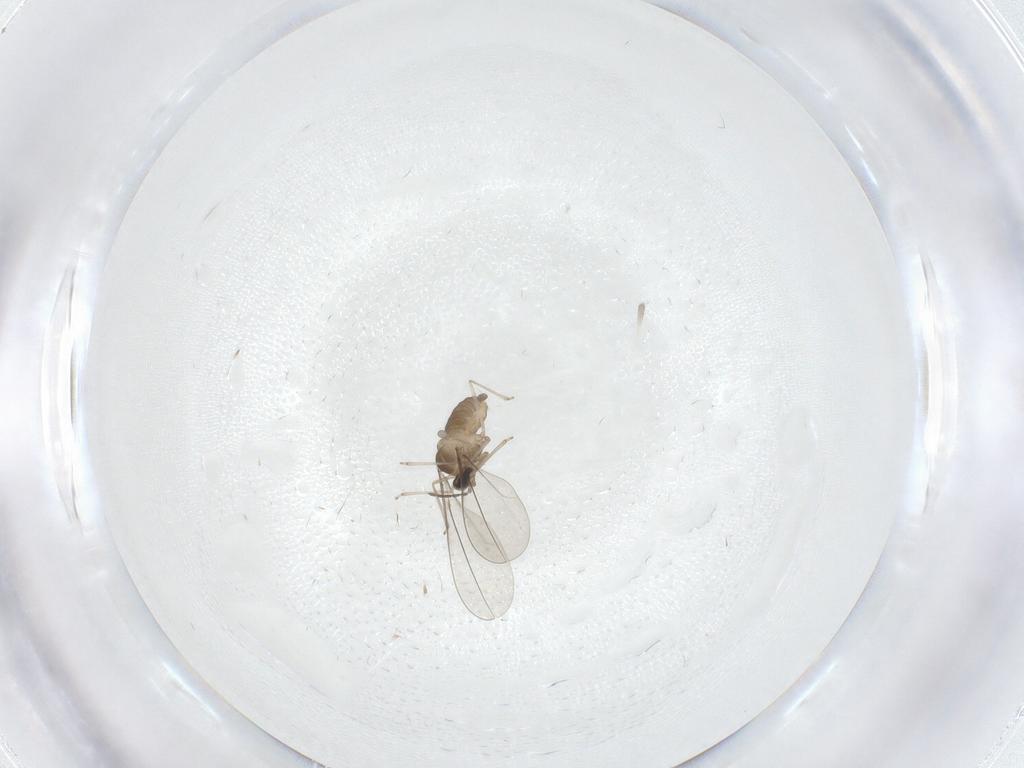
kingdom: Animalia
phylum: Arthropoda
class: Insecta
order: Diptera
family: Cecidomyiidae
